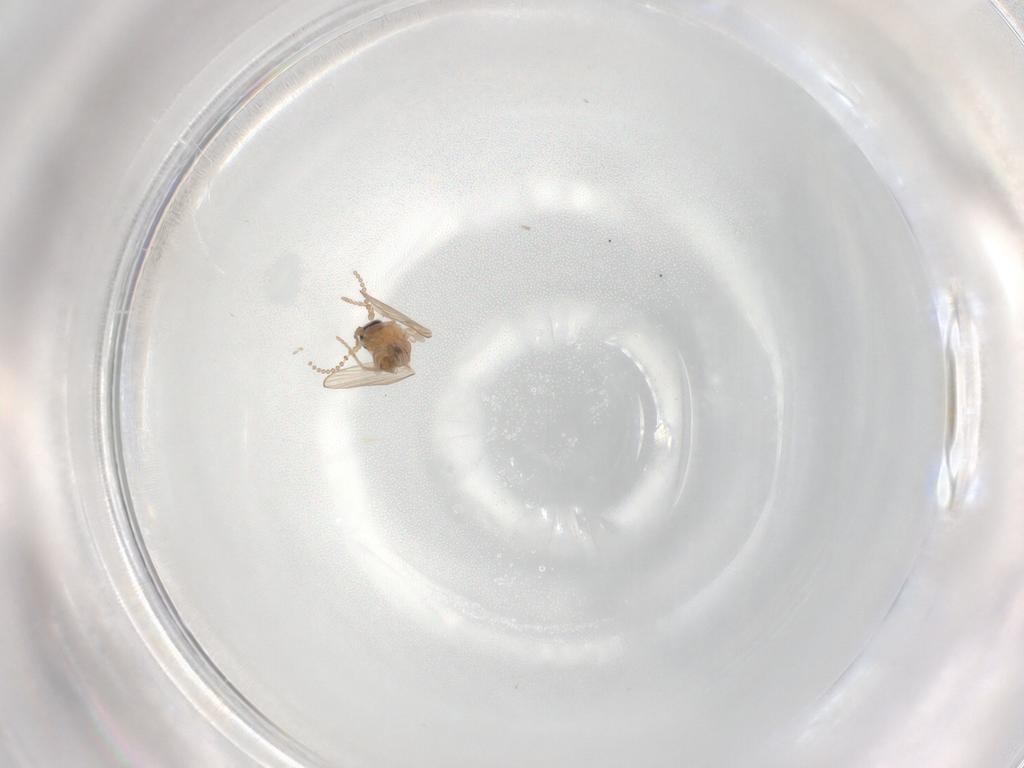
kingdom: Animalia
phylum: Arthropoda
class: Insecta
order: Diptera
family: Psychodidae
